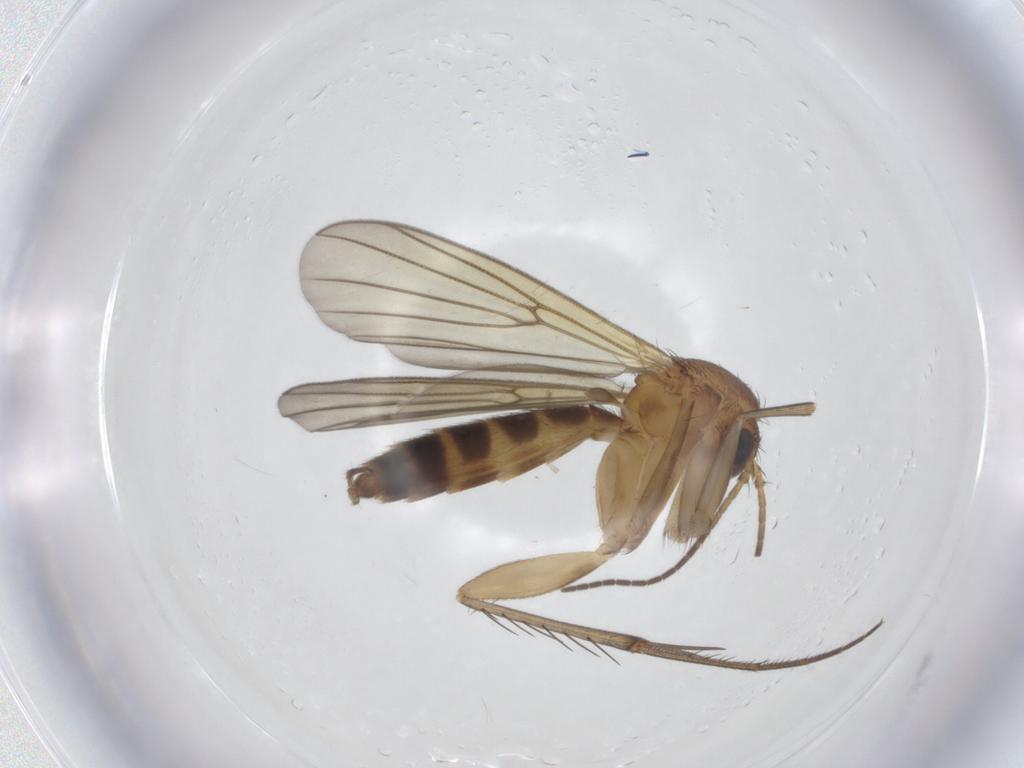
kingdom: Animalia
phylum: Arthropoda
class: Insecta
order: Diptera
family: Mycetophilidae
